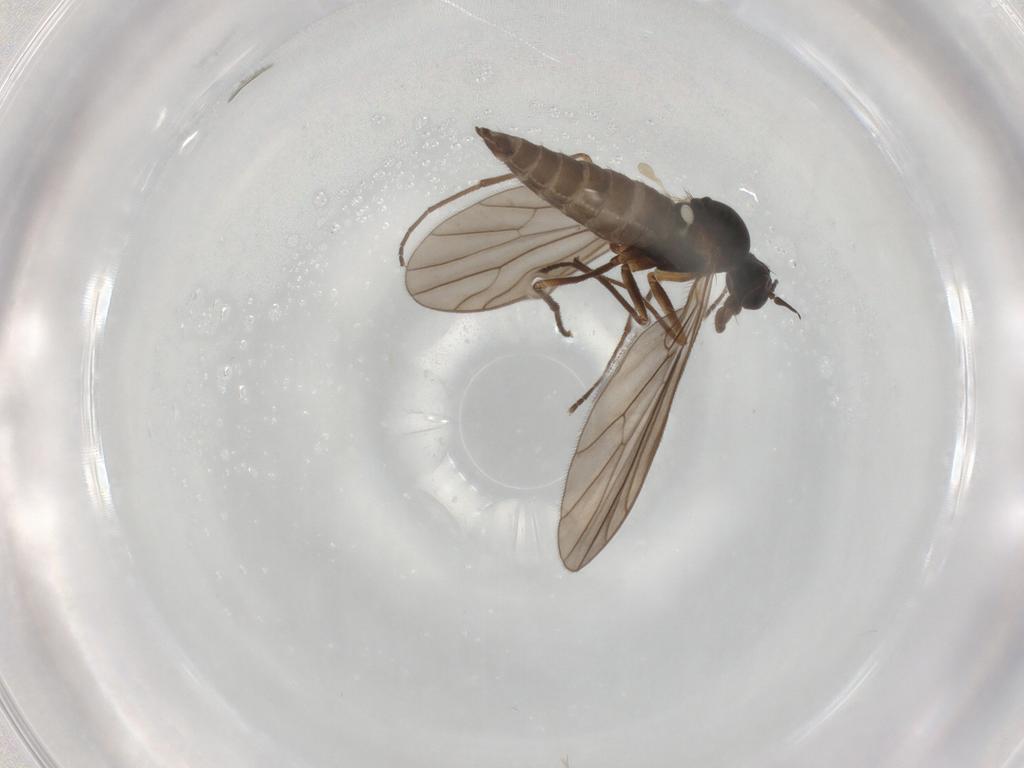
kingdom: Animalia
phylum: Arthropoda
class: Insecta
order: Diptera
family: Empididae
